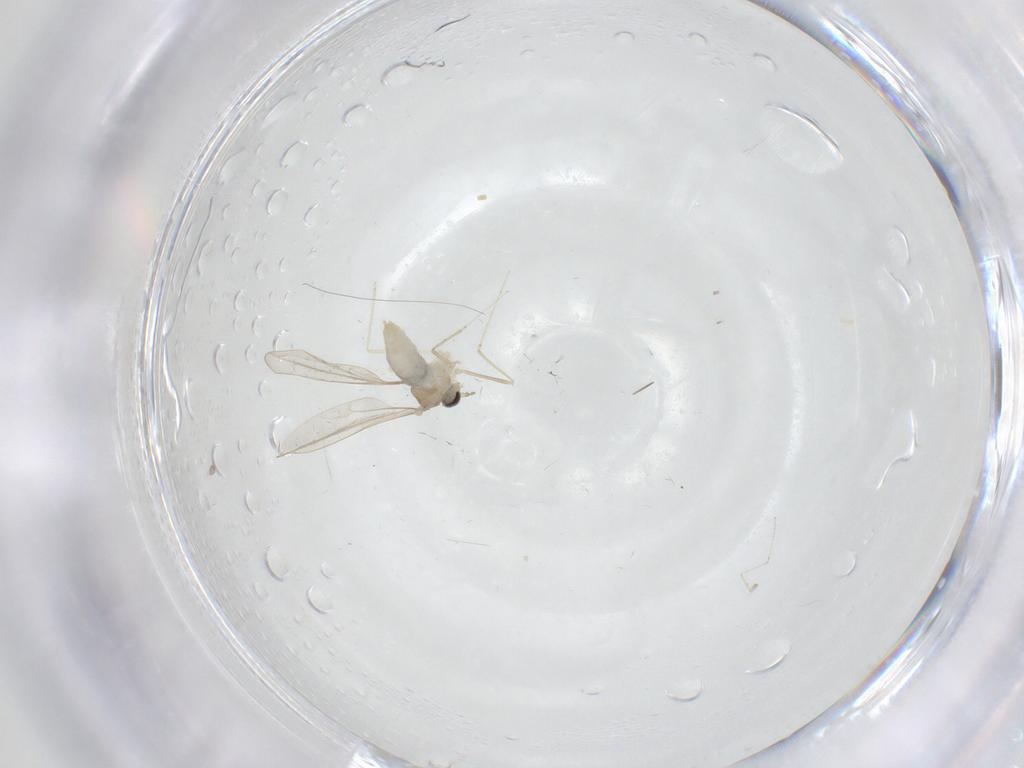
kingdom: Animalia
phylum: Arthropoda
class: Insecta
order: Diptera
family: Cecidomyiidae
